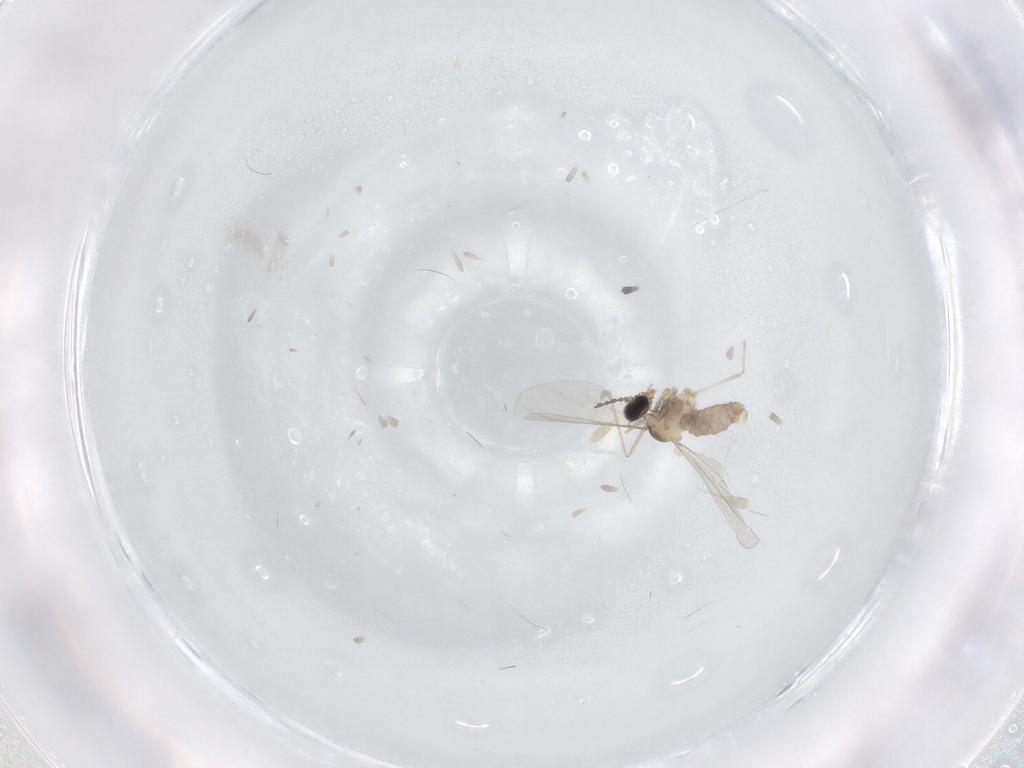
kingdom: Animalia
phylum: Arthropoda
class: Insecta
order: Diptera
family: Cecidomyiidae
